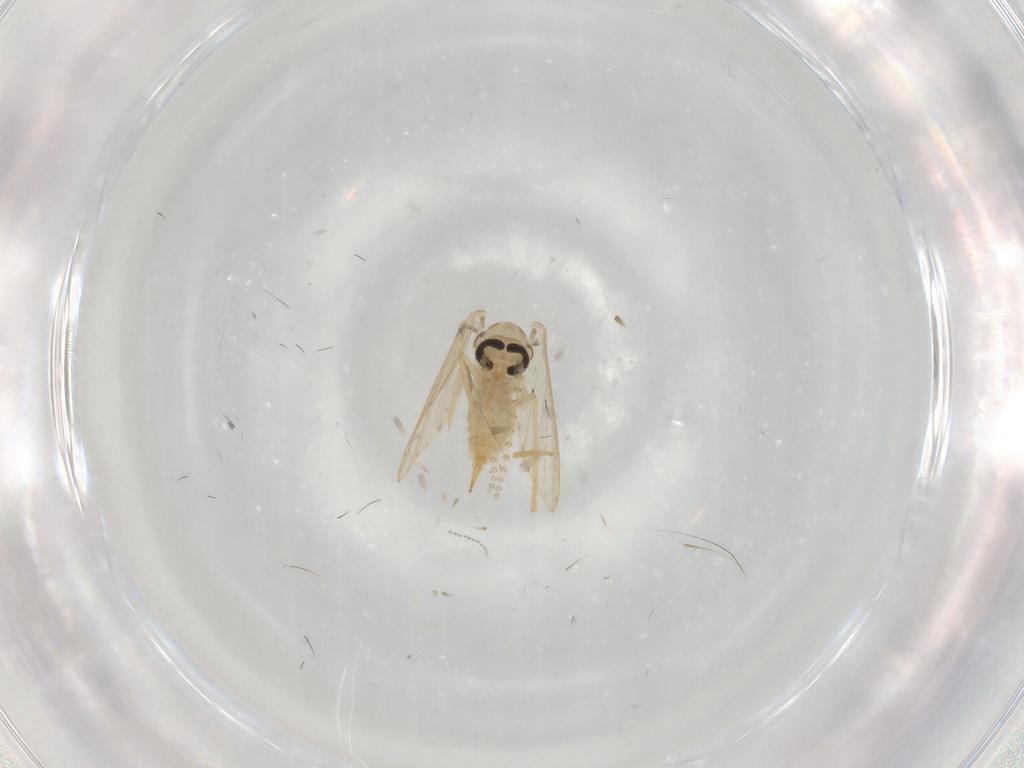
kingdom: Animalia
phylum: Arthropoda
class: Insecta
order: Diptera
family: Psychodidae
